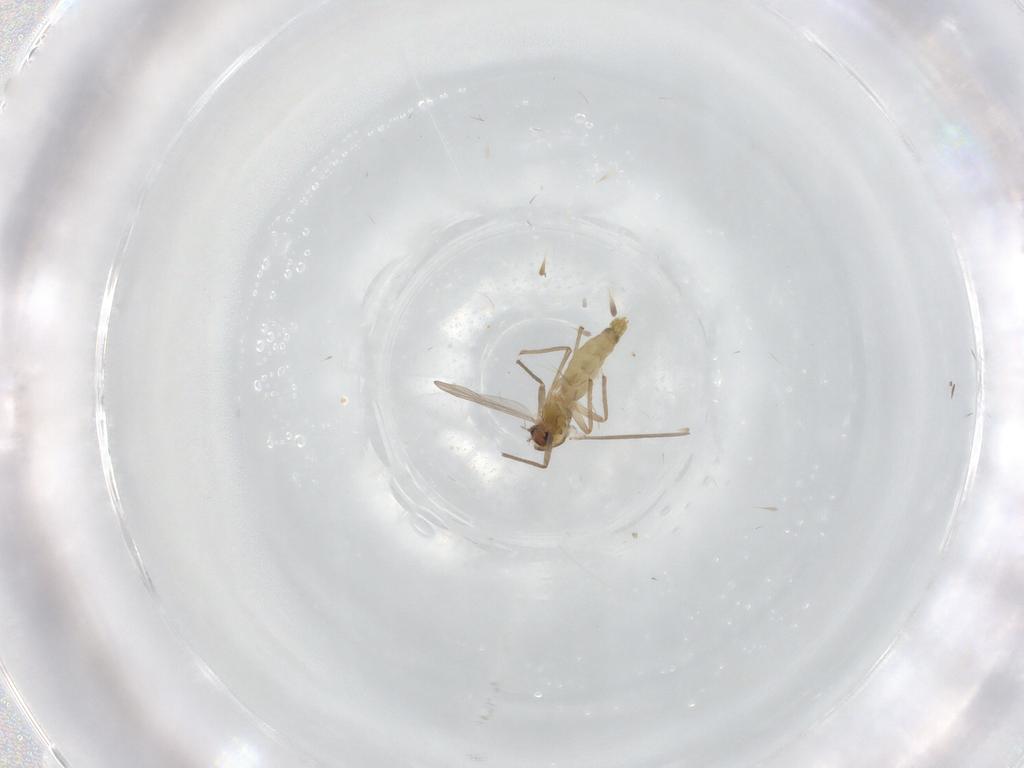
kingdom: Animalia
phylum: Arthropoda
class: Insecta
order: Diptera
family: Chironomidae
